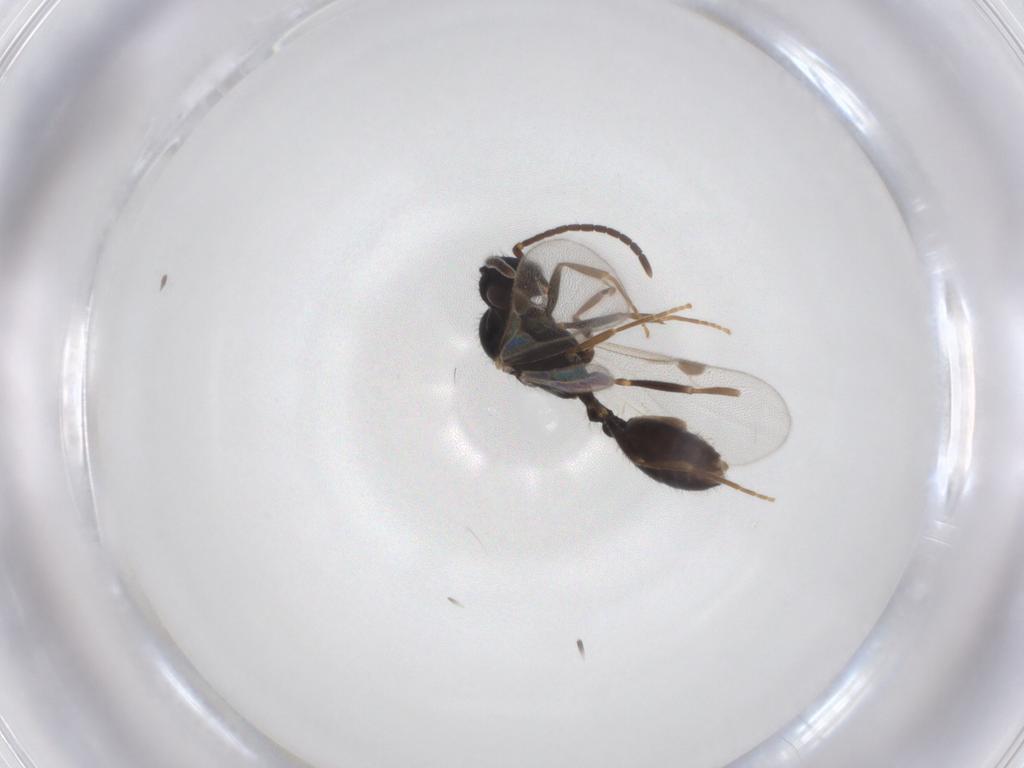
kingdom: Animalia
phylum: Arthropoda
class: Insecta
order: Hymenoptera
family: Formicidae
